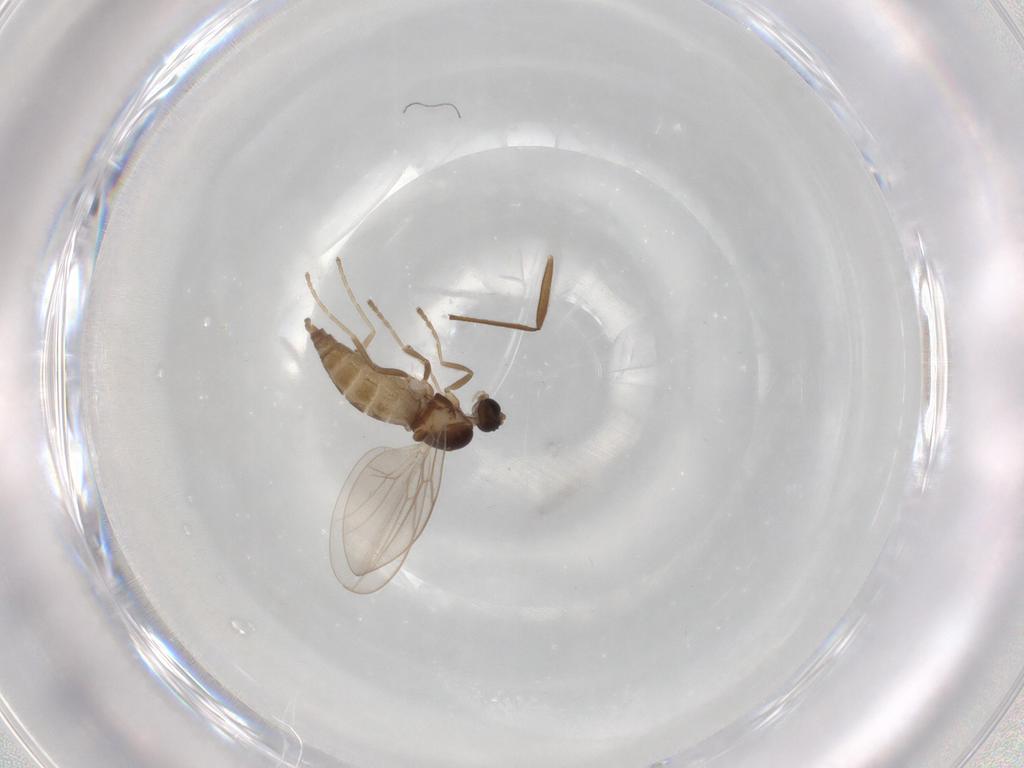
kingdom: Animalia
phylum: Arthropoda
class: Insecta
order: Diptera
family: Cecidomyiidae
